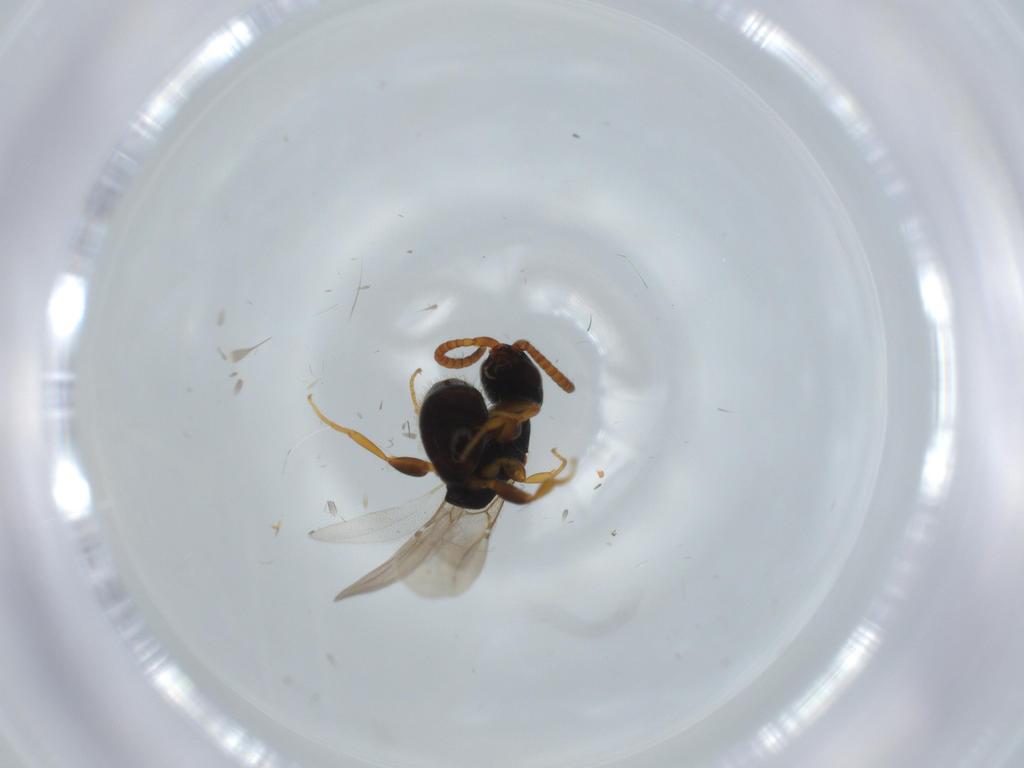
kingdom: Animalia
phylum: Arthropoda
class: Insecta
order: Hymenoptera
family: Bethylidae
